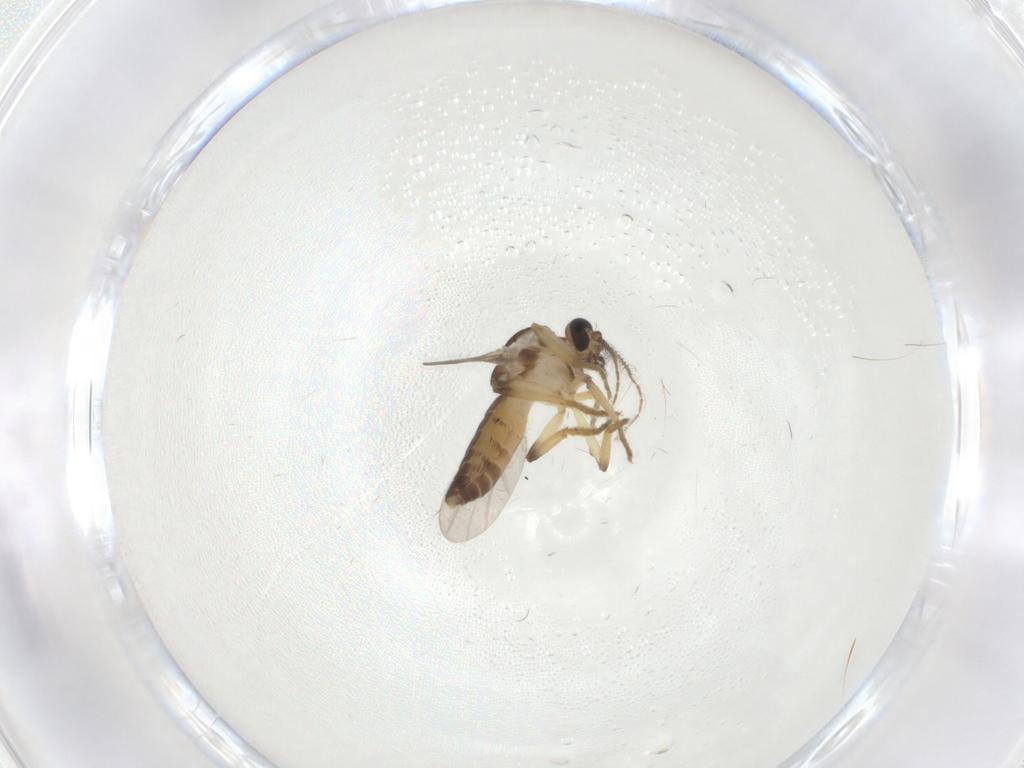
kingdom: Animalia
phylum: Arthropoda
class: Insecta
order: Diptera
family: Ceratopogonidae
